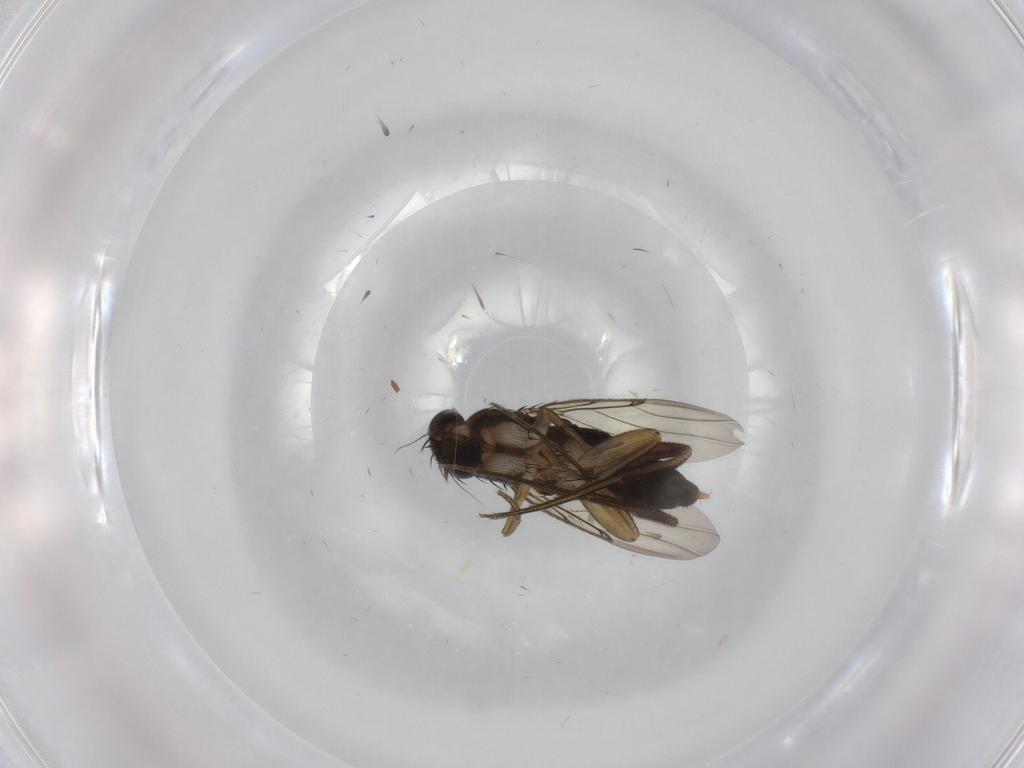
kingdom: Animalia
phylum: Arthropoda
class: Insecta
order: Diptera
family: Phoridae
